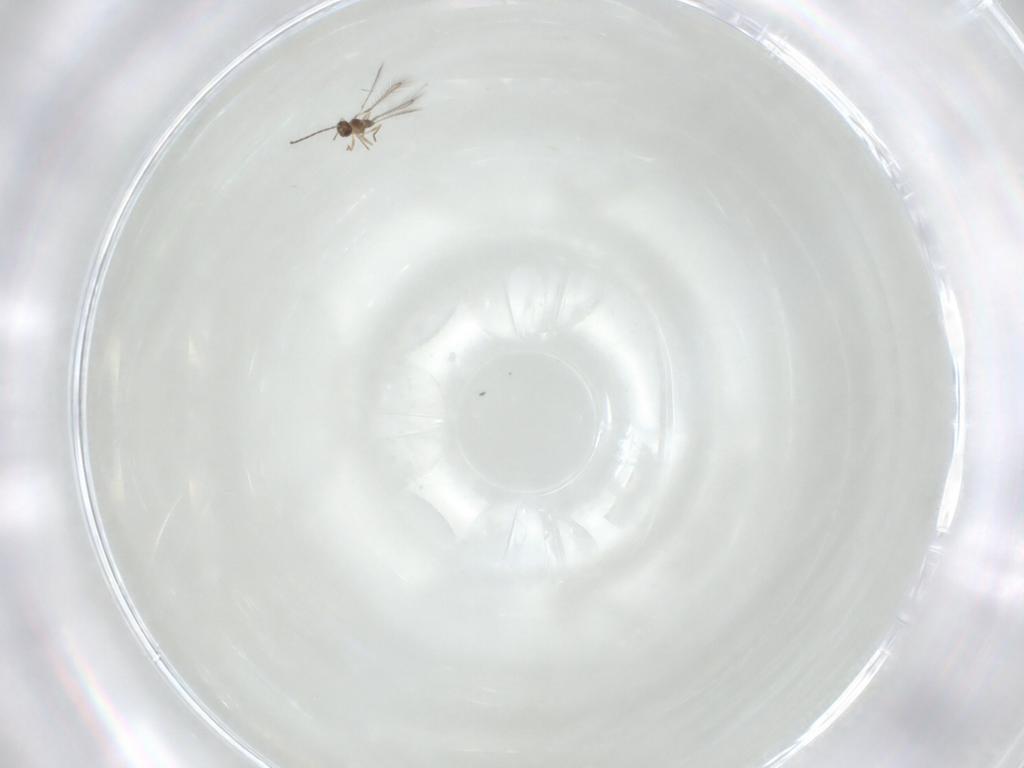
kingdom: Animalia
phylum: Arthropoda
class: Insecta
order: Hymenoptera
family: Mymaridae
